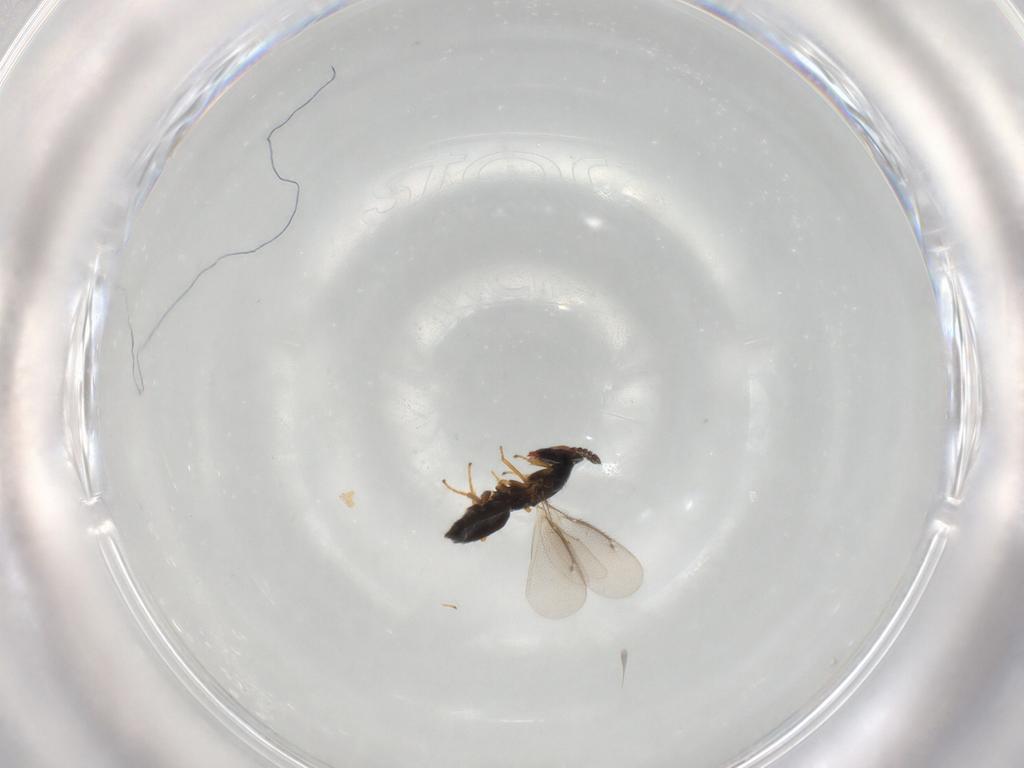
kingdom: Animalia
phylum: Arthropoda
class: Insecta
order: Hymenoptera
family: Eulophidae
